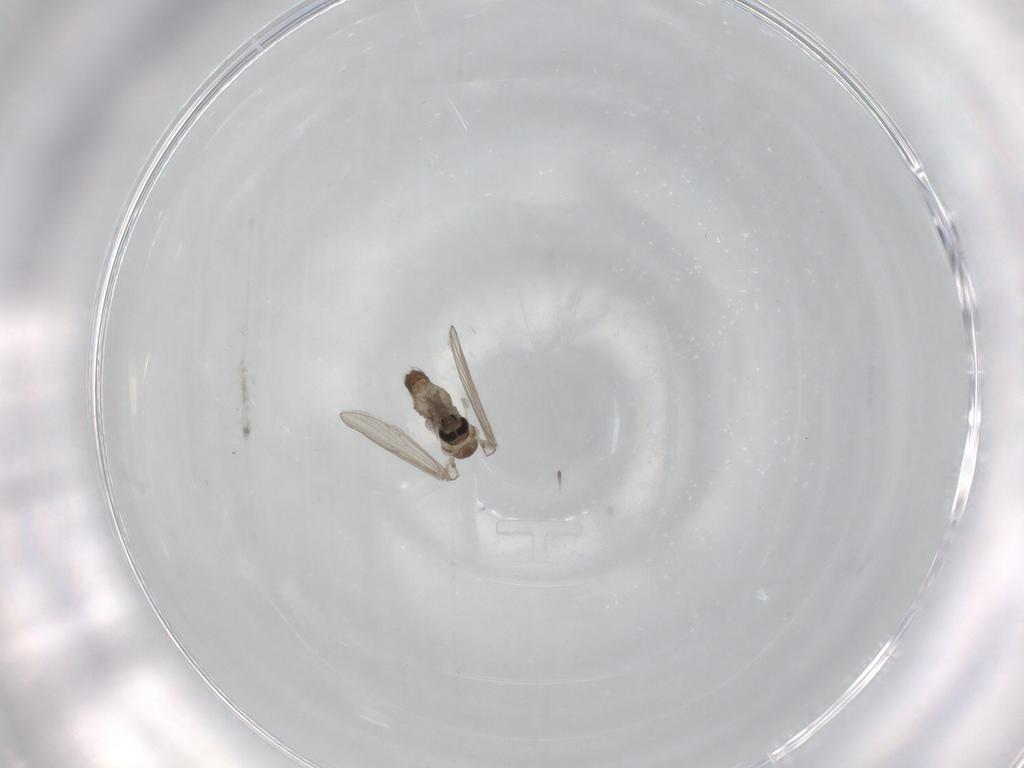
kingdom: Animalia
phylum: Arthropoda
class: Insecta
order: Diptera
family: Psychodidae
